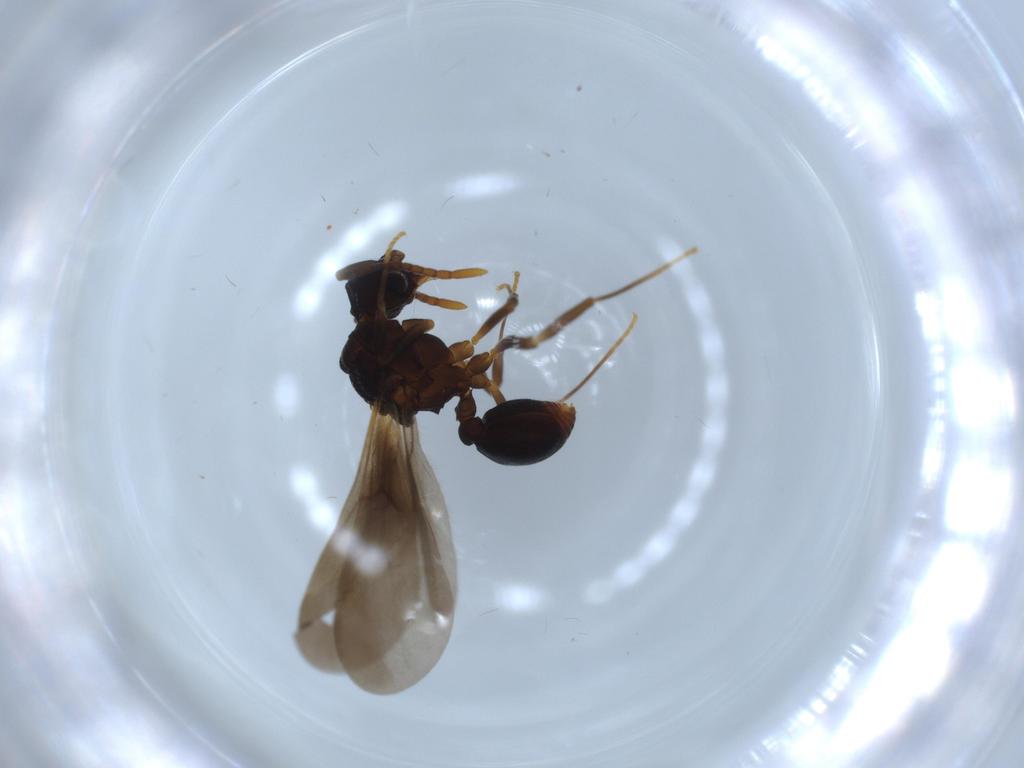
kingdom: Animalia
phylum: Arthropoda
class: Insecta
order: Hymenoptera
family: Formicidae
